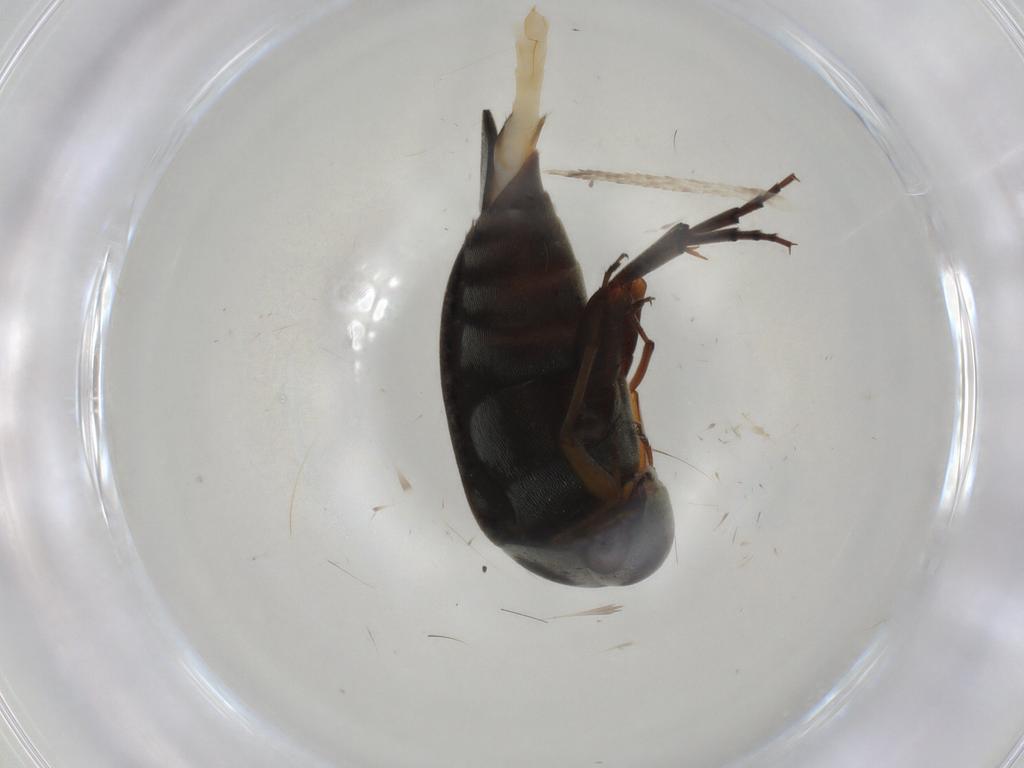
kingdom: Animalia
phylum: Arthropoda
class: Insecta
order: Coleoptera
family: Mordellidae
